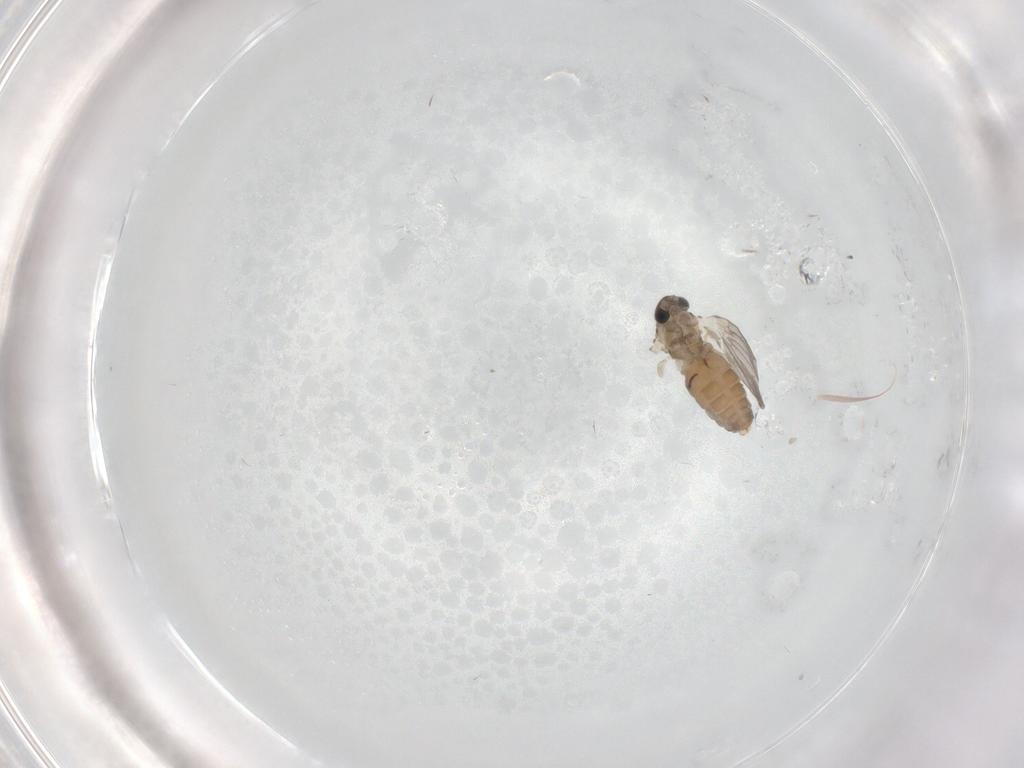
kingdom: Animalia
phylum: Arthropoda
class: Insecta
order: Diptera
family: Psychodidae
